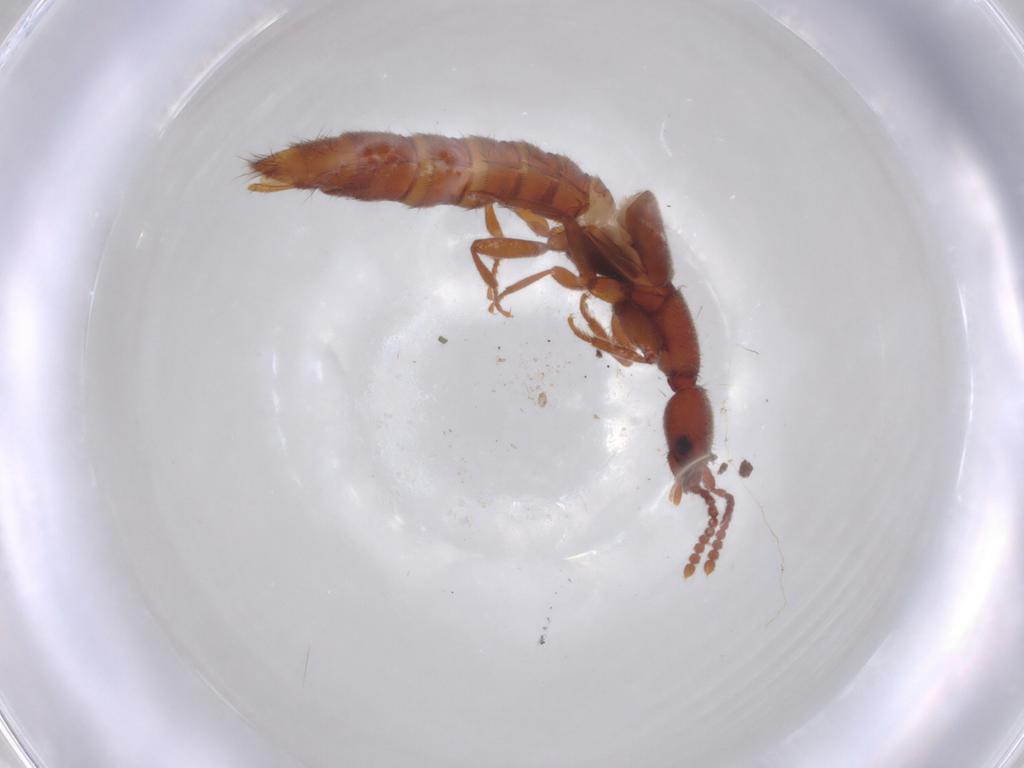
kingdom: Animalia
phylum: Arthropoda
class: Insecta
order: Coleoptera
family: Staphylinidae
